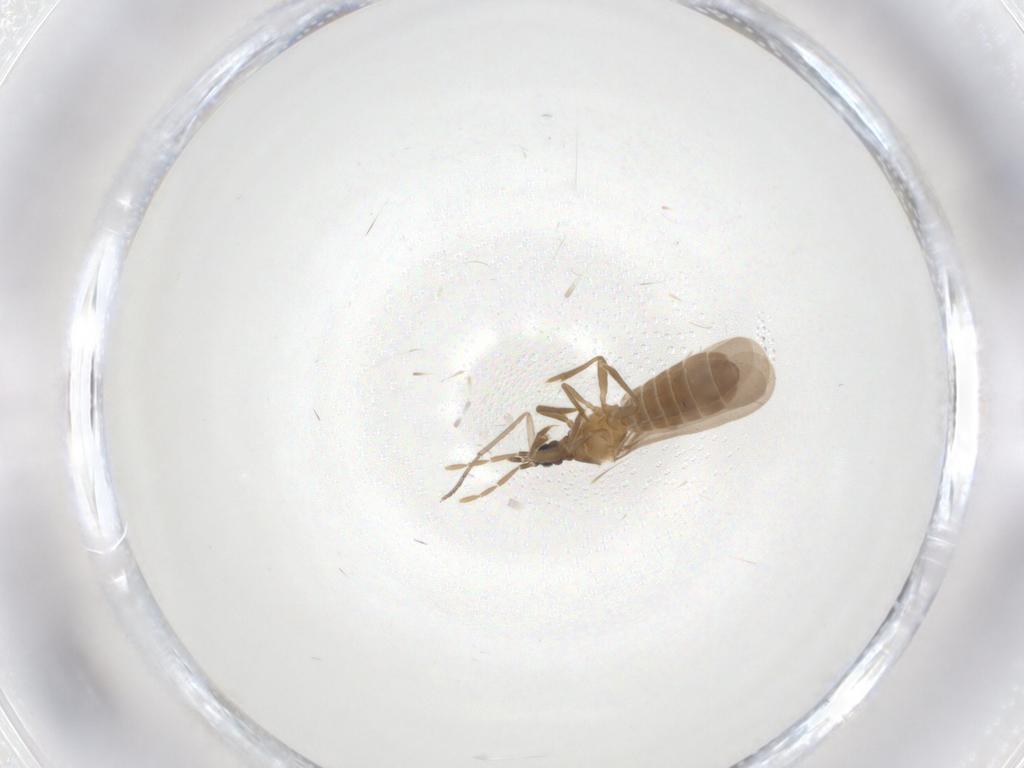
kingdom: Animalia
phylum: Arthropoda
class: Insecta
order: Hemiptera
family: Enicocephalidae
